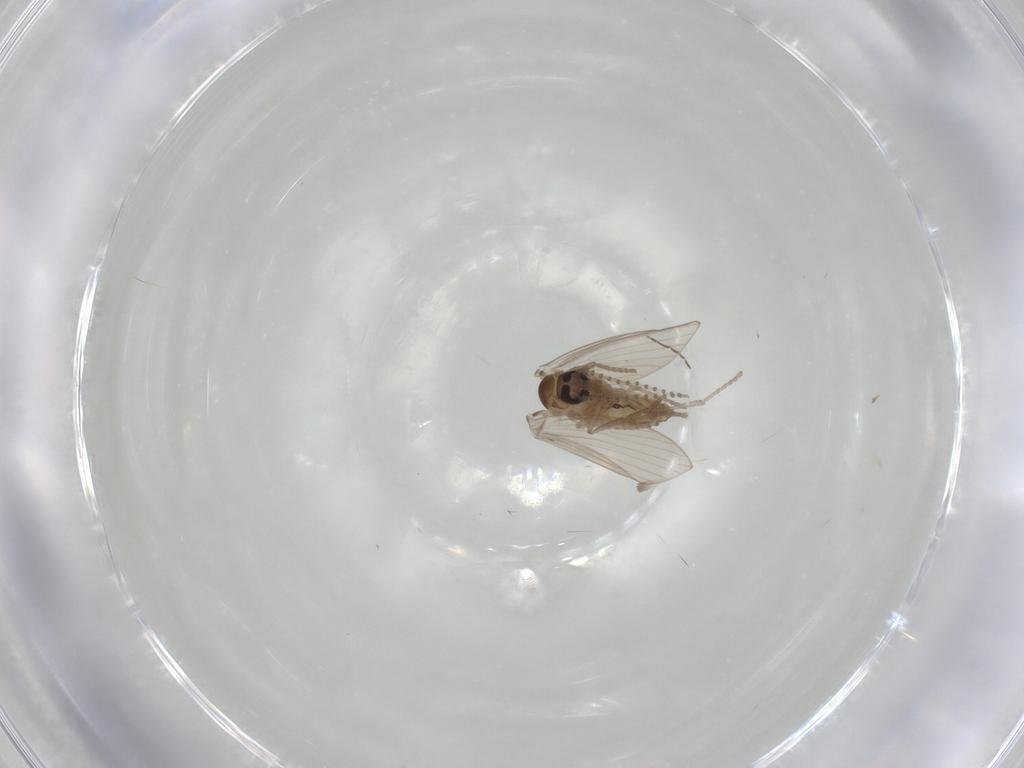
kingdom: Animalia
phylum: Arthropoda
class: Insecta
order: Diptera
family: Psychodidae
